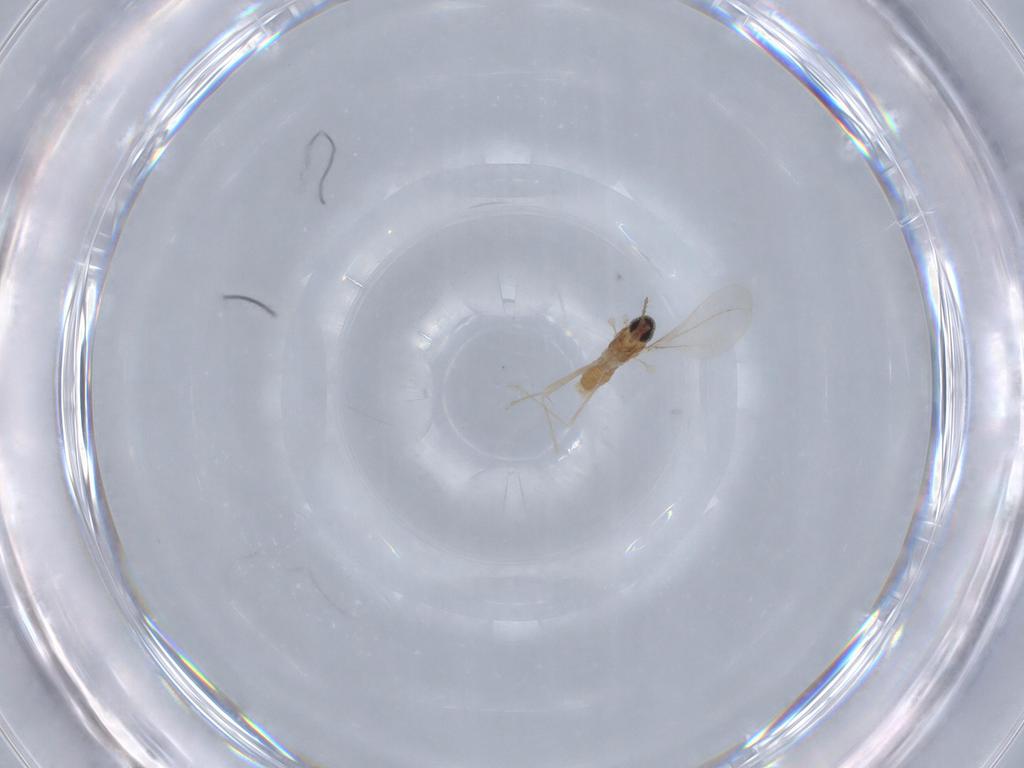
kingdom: Animalia
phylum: Arthropoda
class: Insecta
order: Diptera
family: Cecidomyiidae
